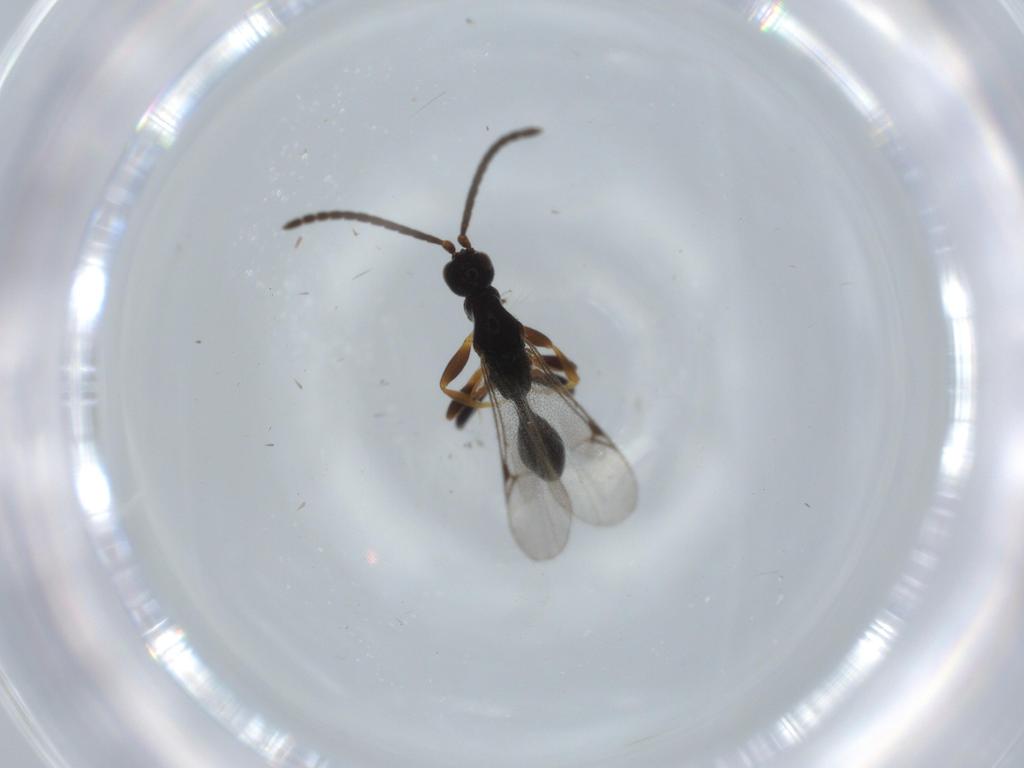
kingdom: Animalia
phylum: Arthropoda
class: Insecta
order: Hymenoptera
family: Proctotrupidae
